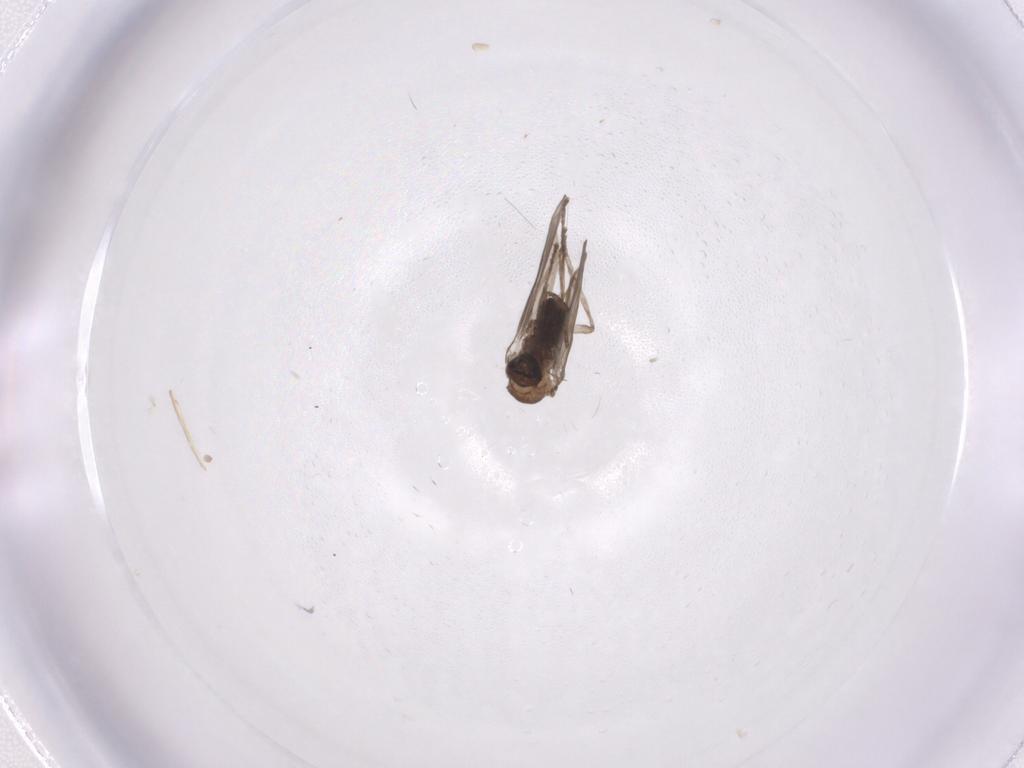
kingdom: Animalia
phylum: Arthropoda
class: Insecta
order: Diptera
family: Psychodidae
